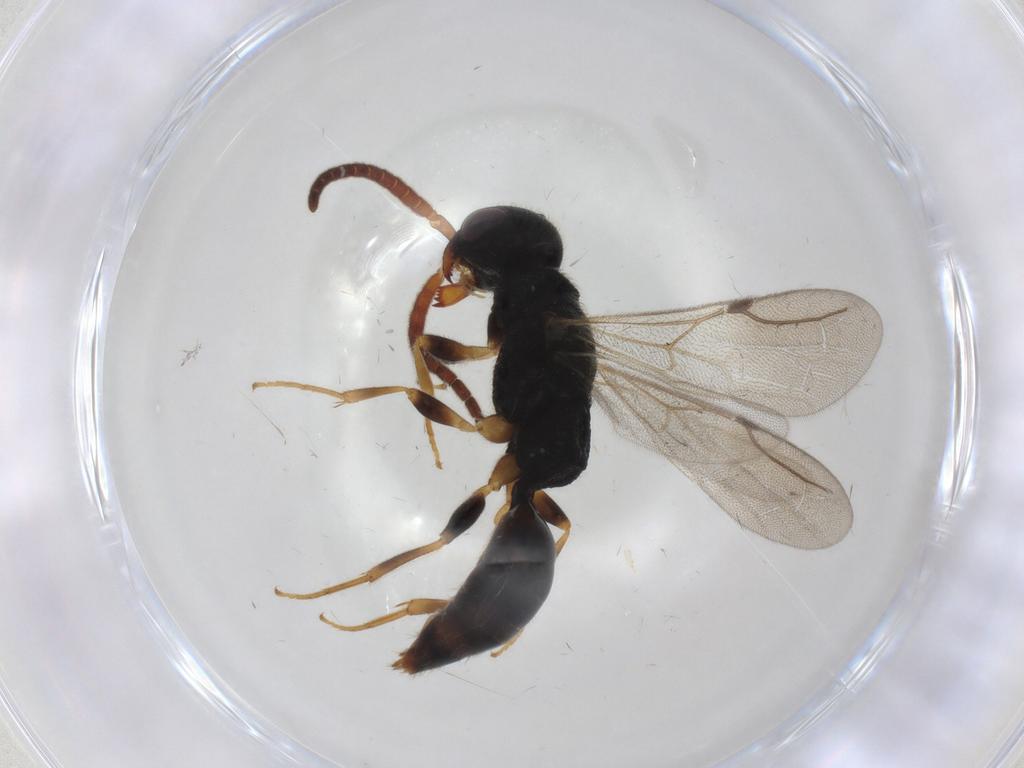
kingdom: Animalia
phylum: Arthropoda
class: Insecta
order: Hymenoptera
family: Bethylidae
